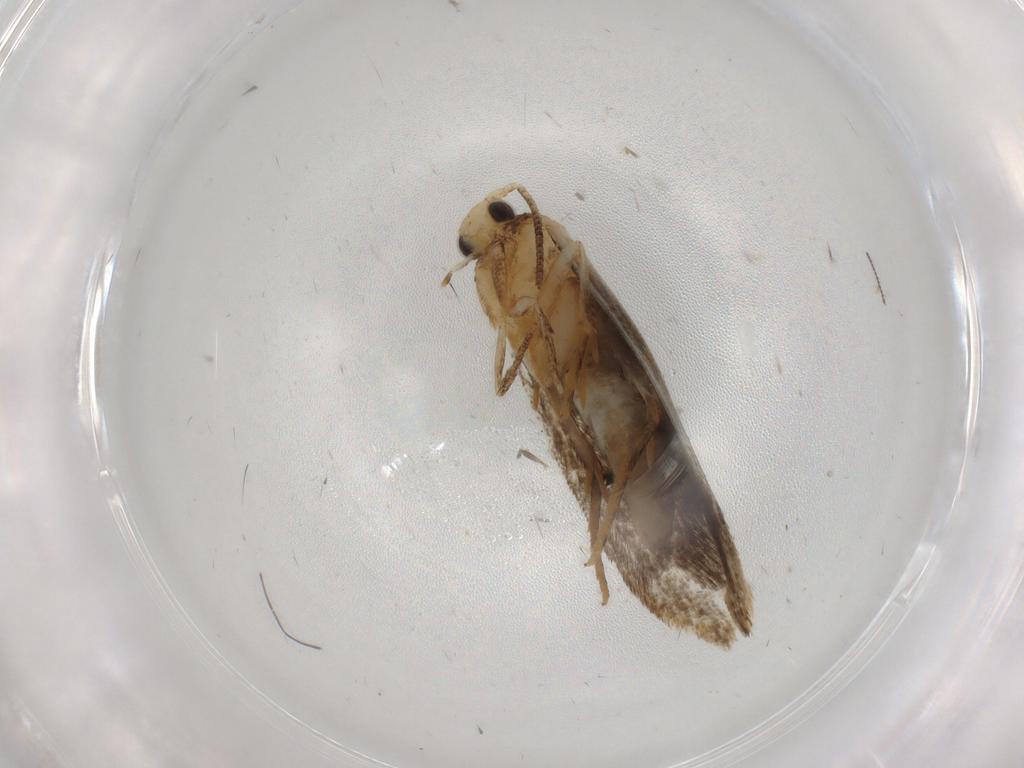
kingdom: Animalia
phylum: Arthropoda
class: Insecta
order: Lepidoptera
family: Tineidae
